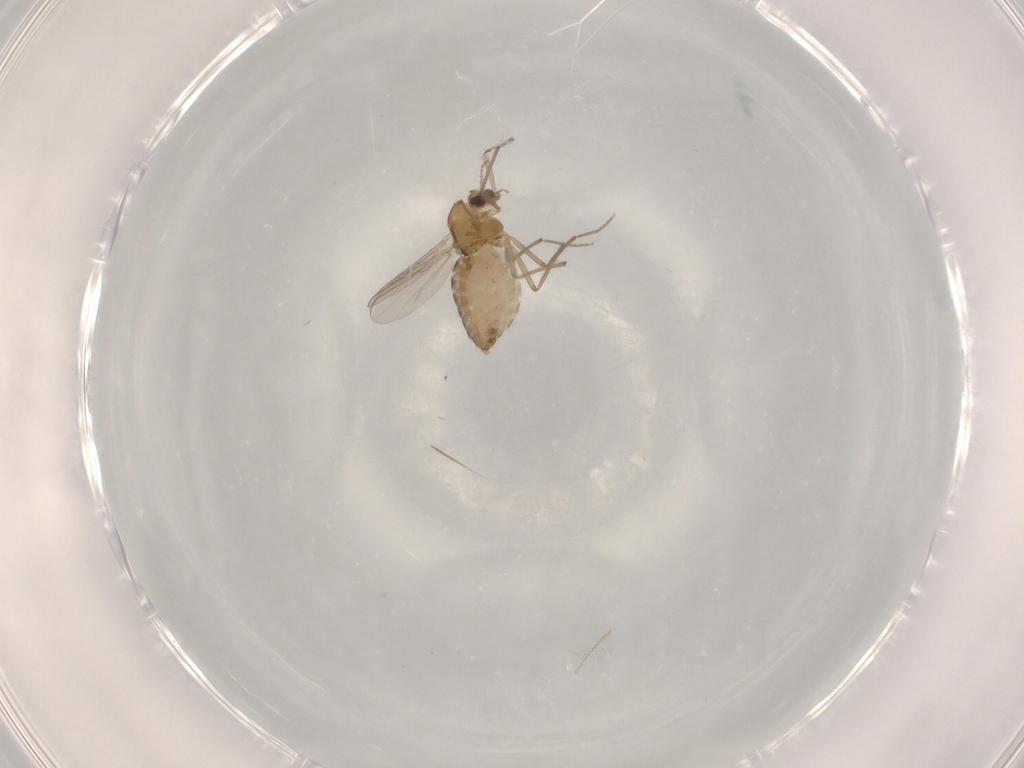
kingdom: Animalia
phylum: Arthropoda
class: Insecta
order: Diptera
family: Chironomidae
